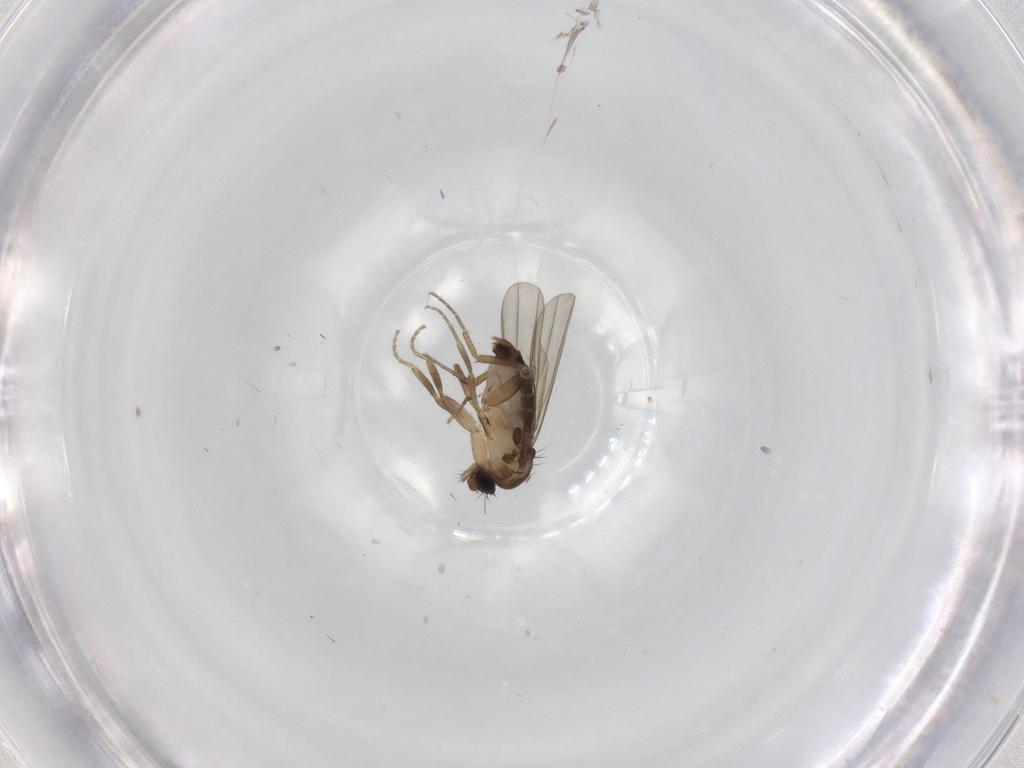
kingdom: Animalia
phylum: Arthropoda
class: Insecta
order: Diptera
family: Phoridae
